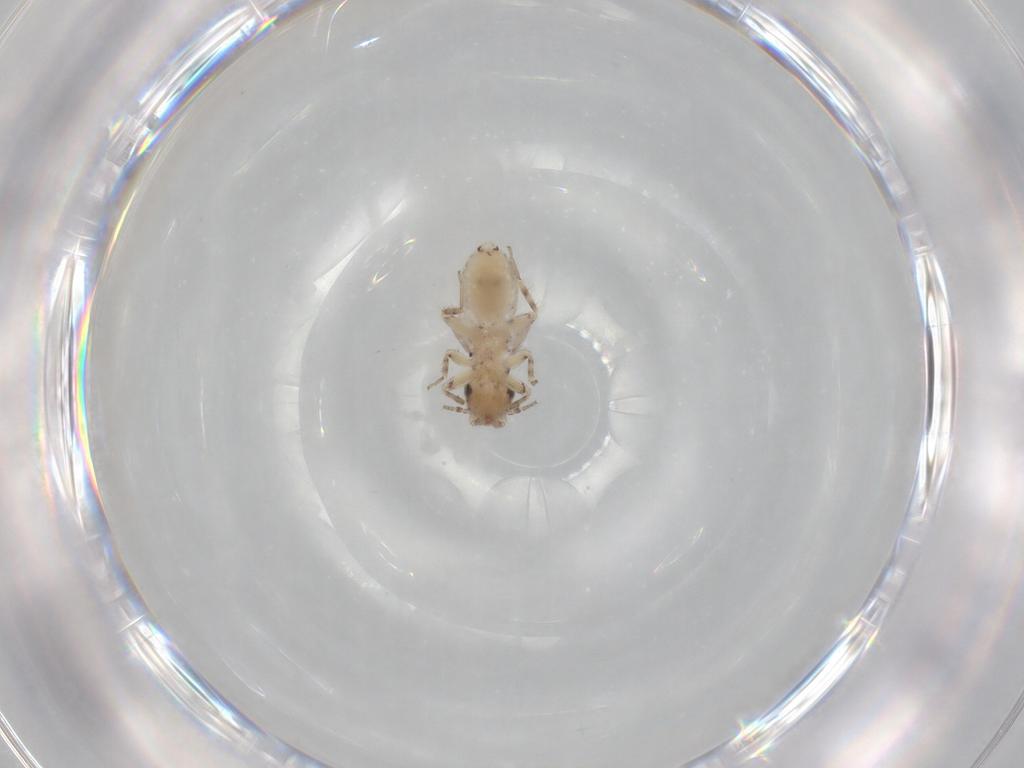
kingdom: Animalia
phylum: Arthropoda
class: Insecta
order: Psocodea
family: Lepidopsocidae
